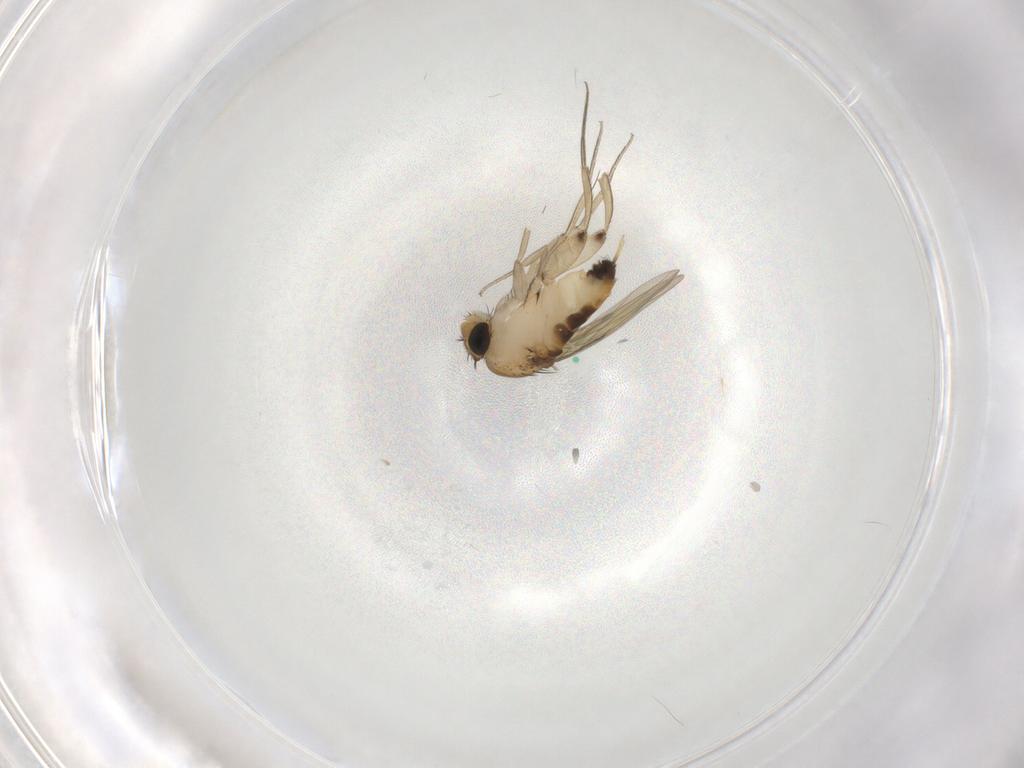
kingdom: Animalia
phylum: Arthropoda
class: Insecta
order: Diptera
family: Phoridae
